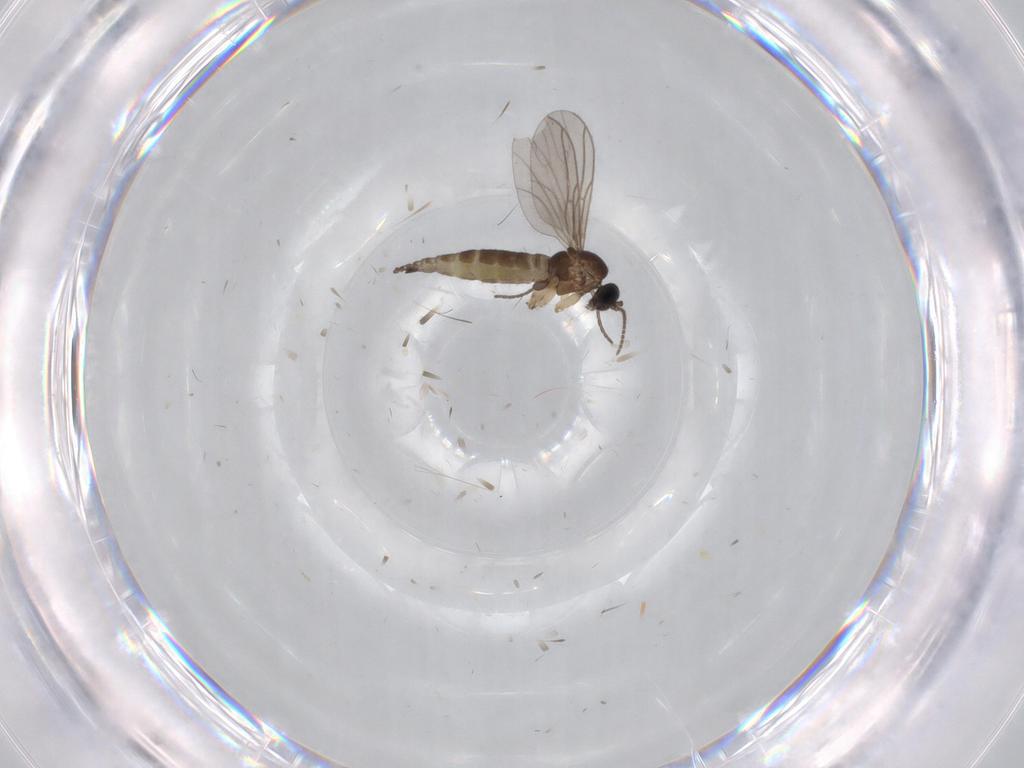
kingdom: Animalia
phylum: Arthropoda
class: Insecta
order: Diptera
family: Sciaridae
